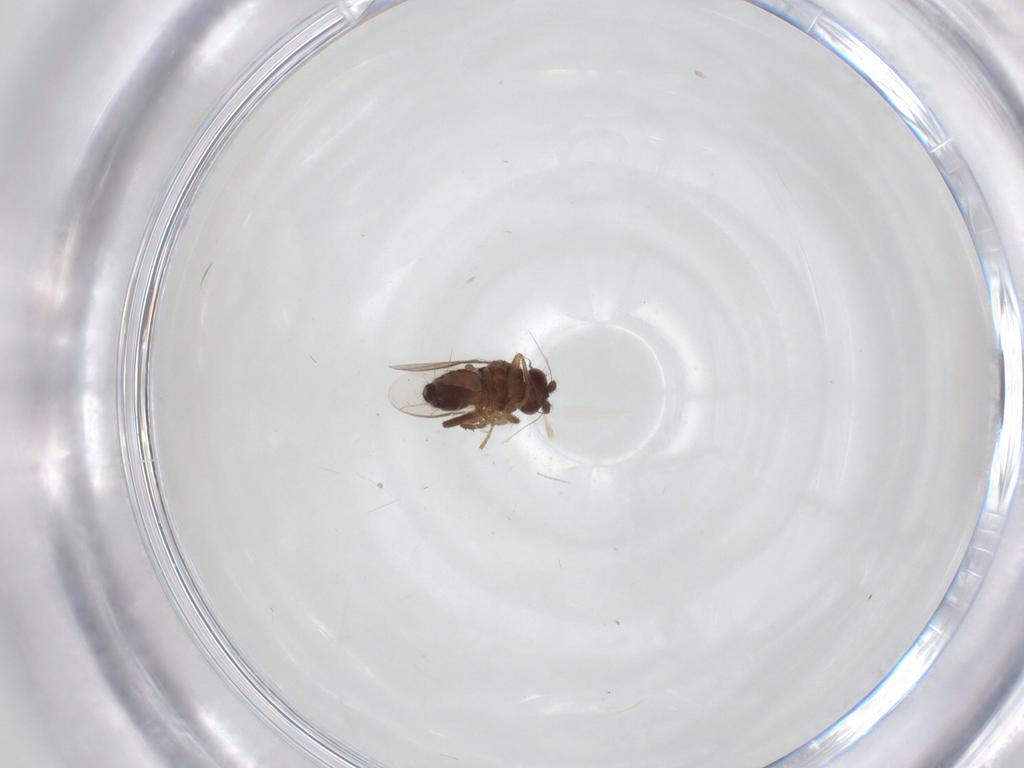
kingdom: Animalia
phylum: Arthropoda
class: Insecta
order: Diptera
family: Sphaeroceridae
